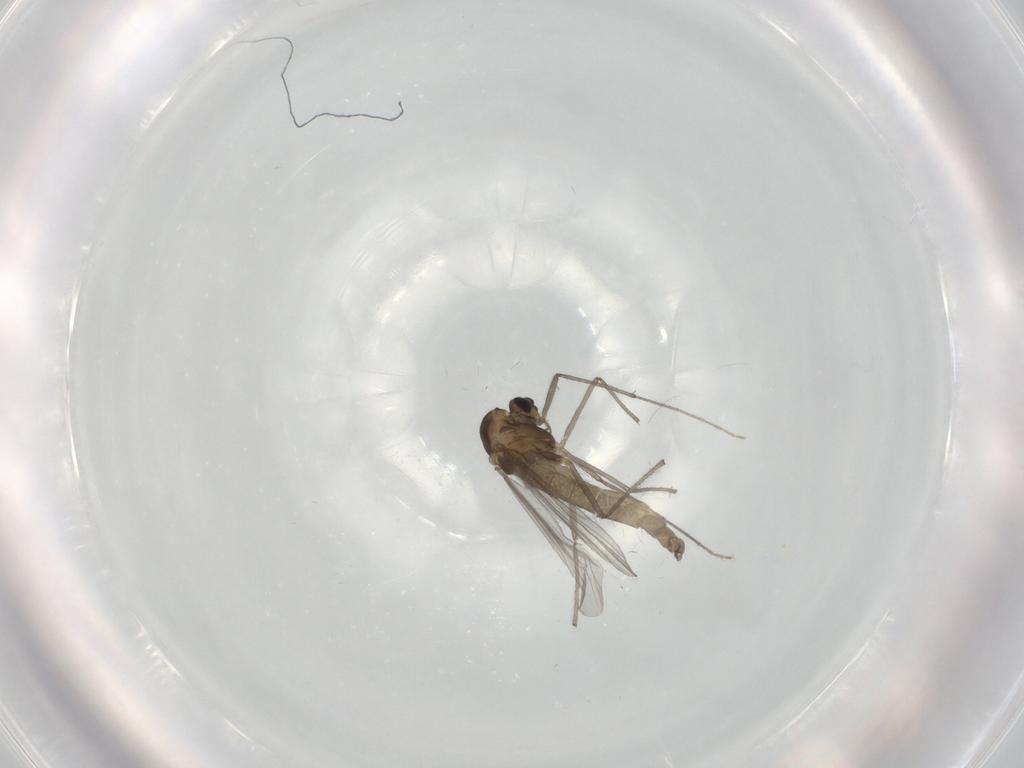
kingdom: Animalia
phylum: Arthropoda
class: Insecta
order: Diptera
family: Chironomidae
